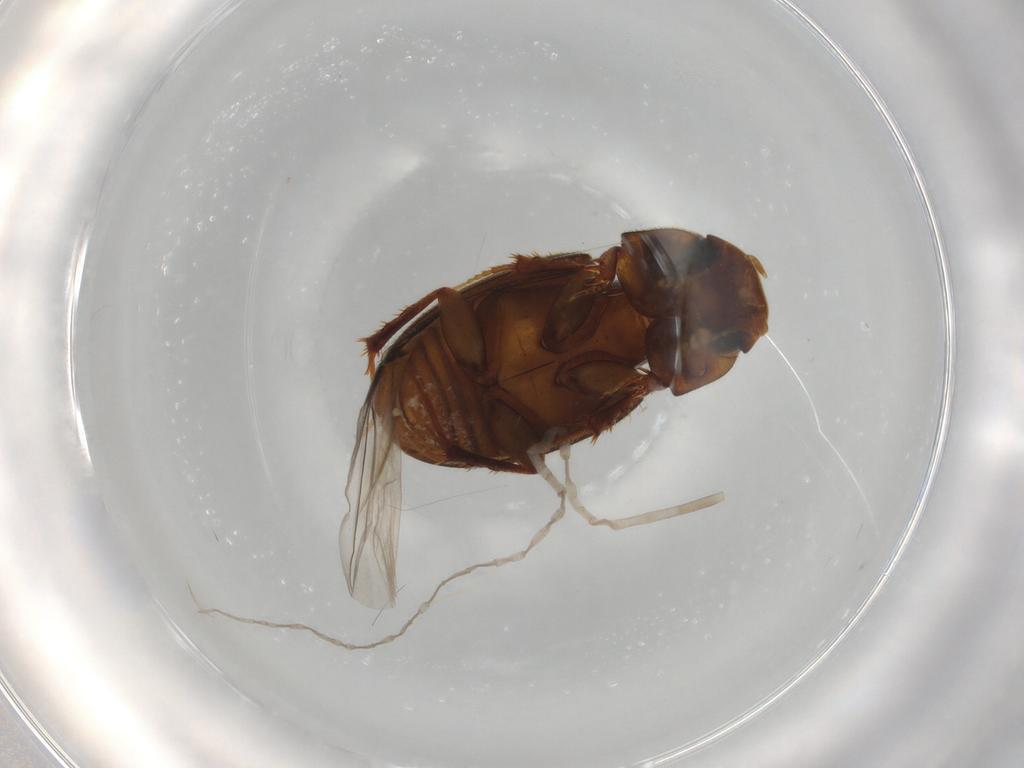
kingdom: Animalia
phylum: Arthropoda
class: Insecta
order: Coleoptera
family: Scarabaeidae
